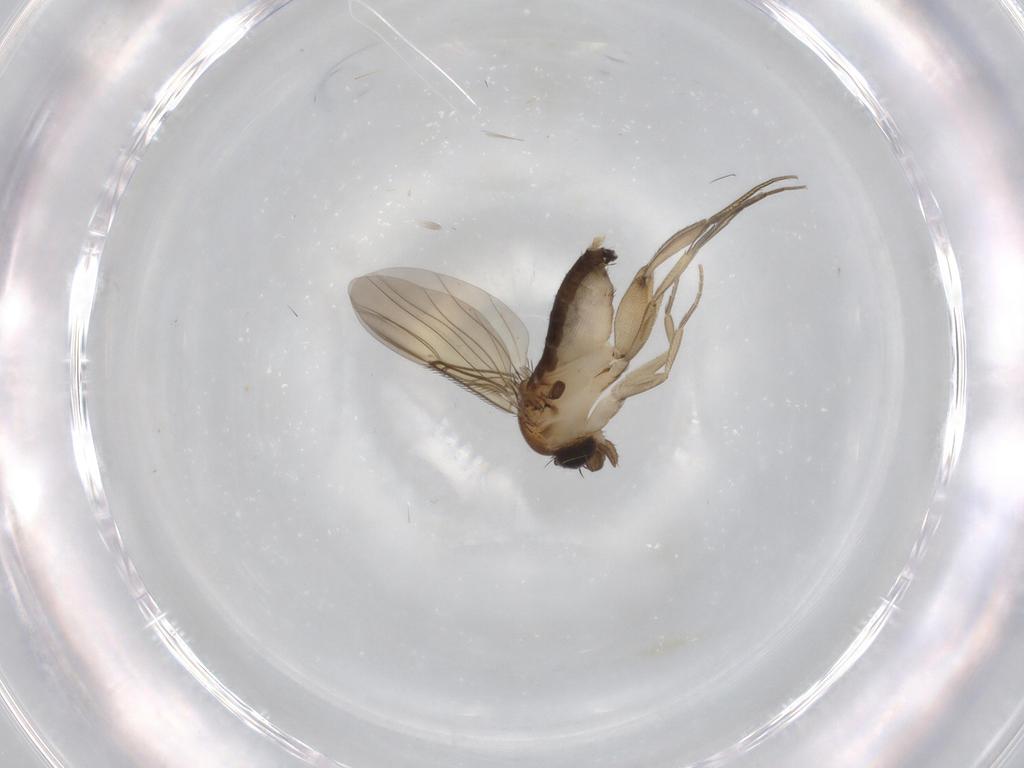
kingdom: Animalia
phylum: Arthropoda
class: Insecta
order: Diptera
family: Phoridae
